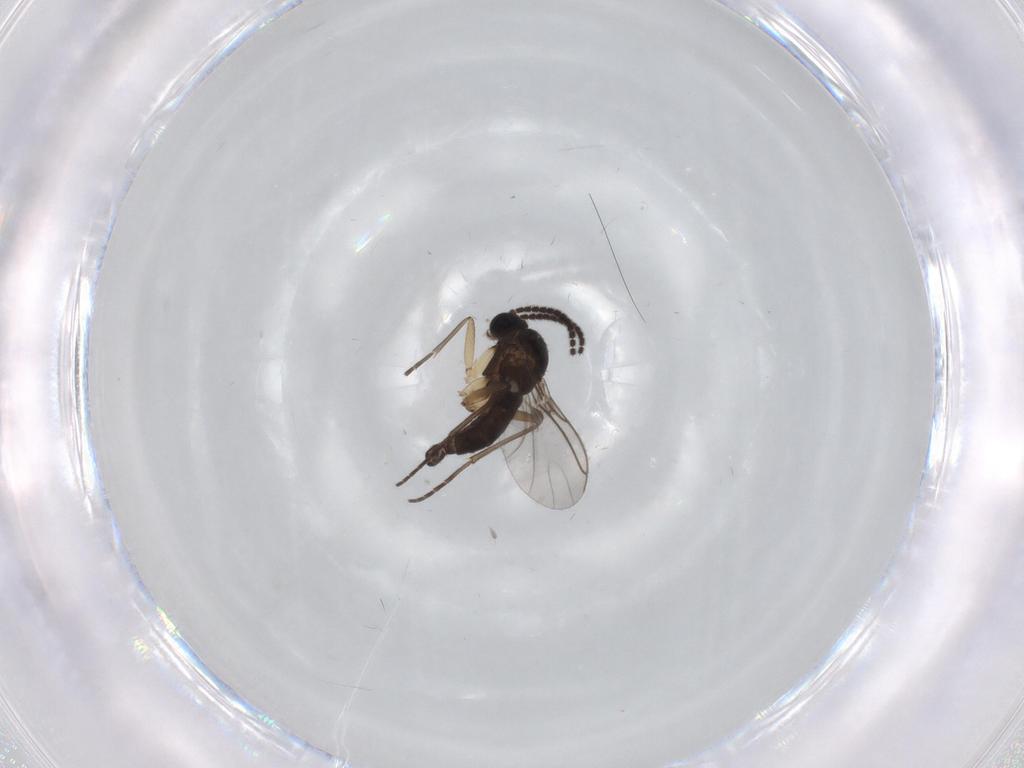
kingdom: Animalia
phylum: Arthropoda
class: Insecta
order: Diptera
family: Sciaridae
